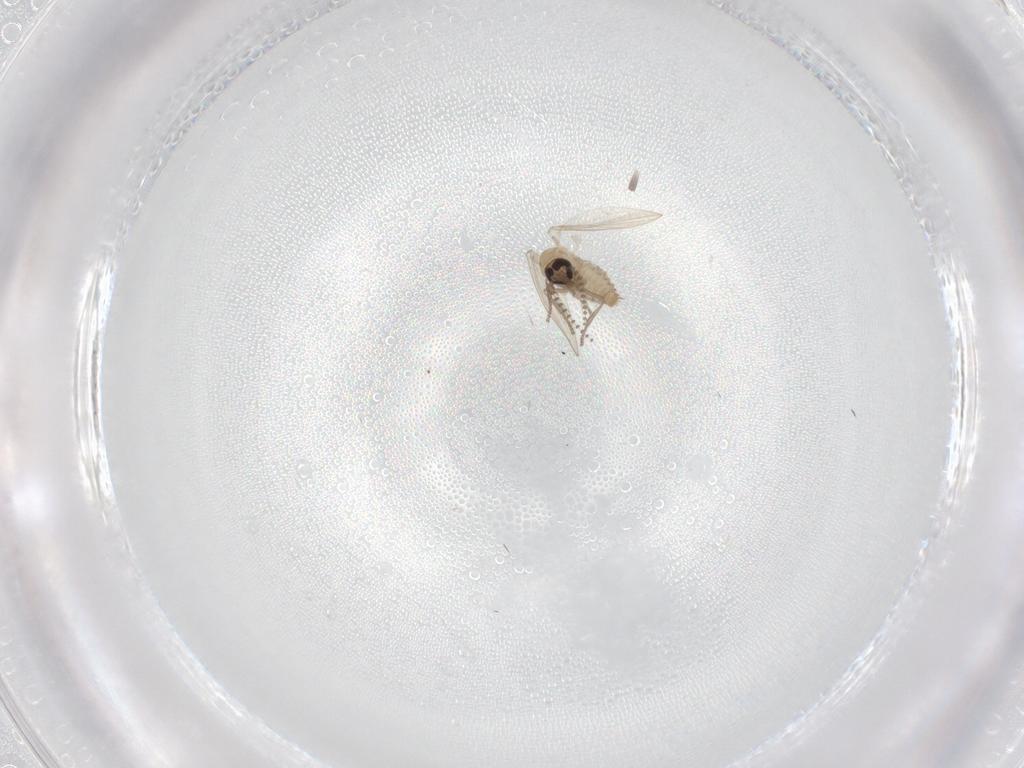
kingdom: Animalia
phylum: Arthropoda
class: Insecta
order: Diptera
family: Psychodidae
